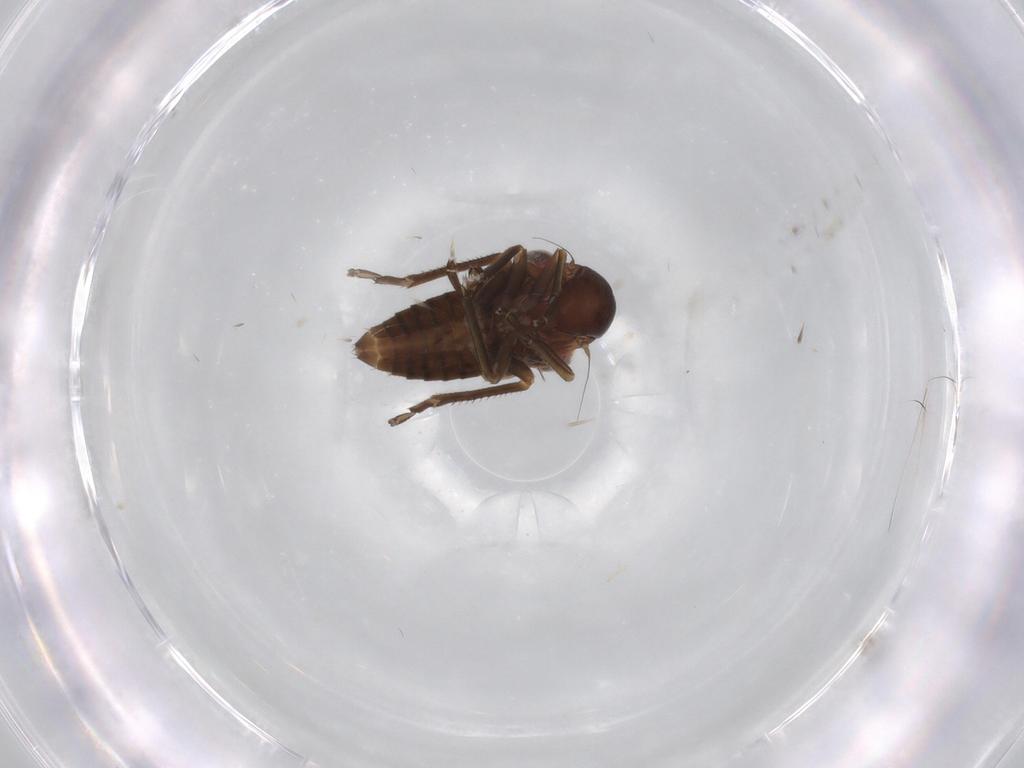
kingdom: Animalia
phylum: Arthropoda
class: Insecta
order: Hemiptera
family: Cicadellidae
